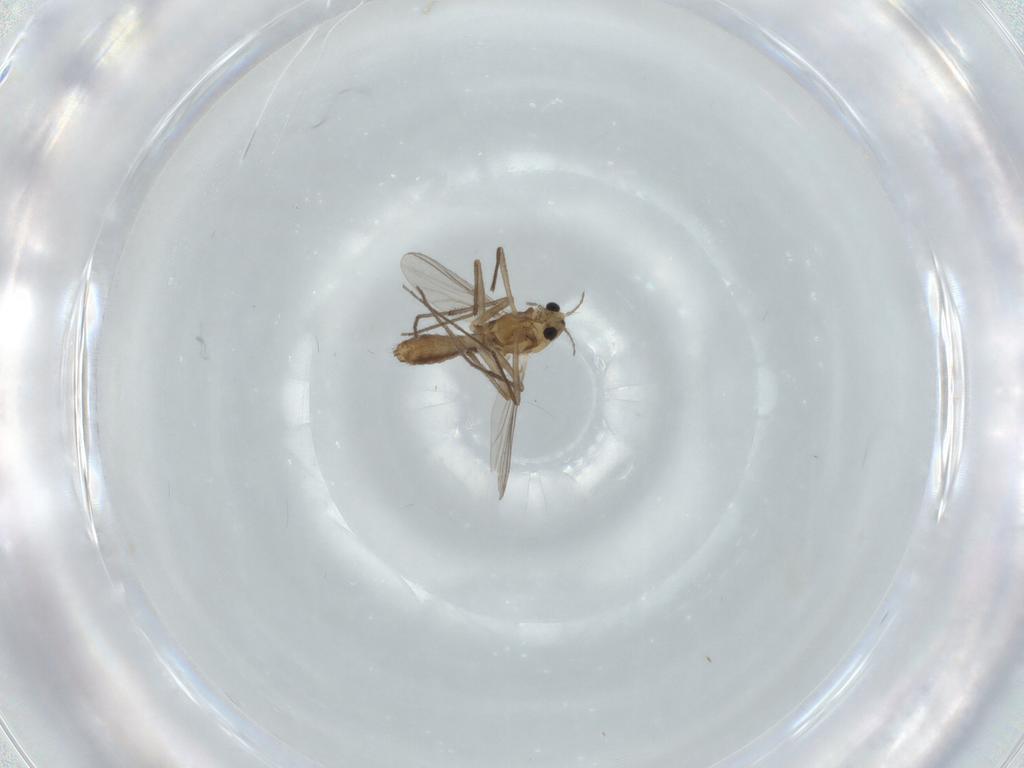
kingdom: Animalia
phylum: Arthropoda
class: Insecta
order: Diptera
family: Chironomidae
